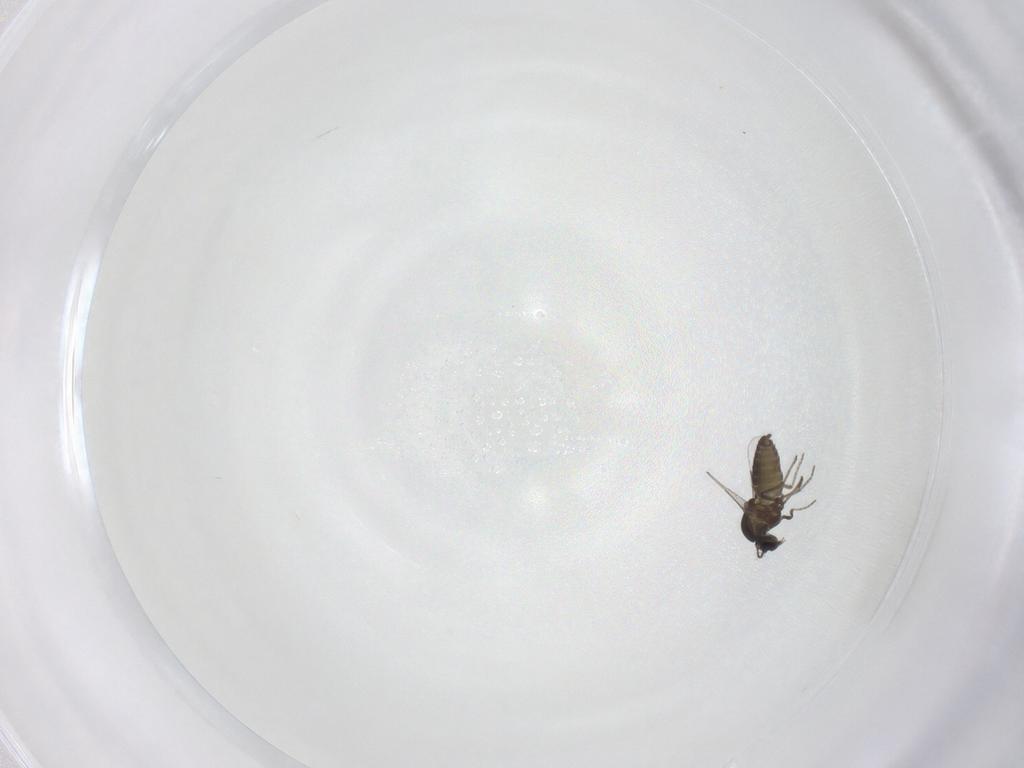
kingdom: Animalia
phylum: Arthropoda
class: Insecta
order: Diptera
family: Ceratopogonidae
